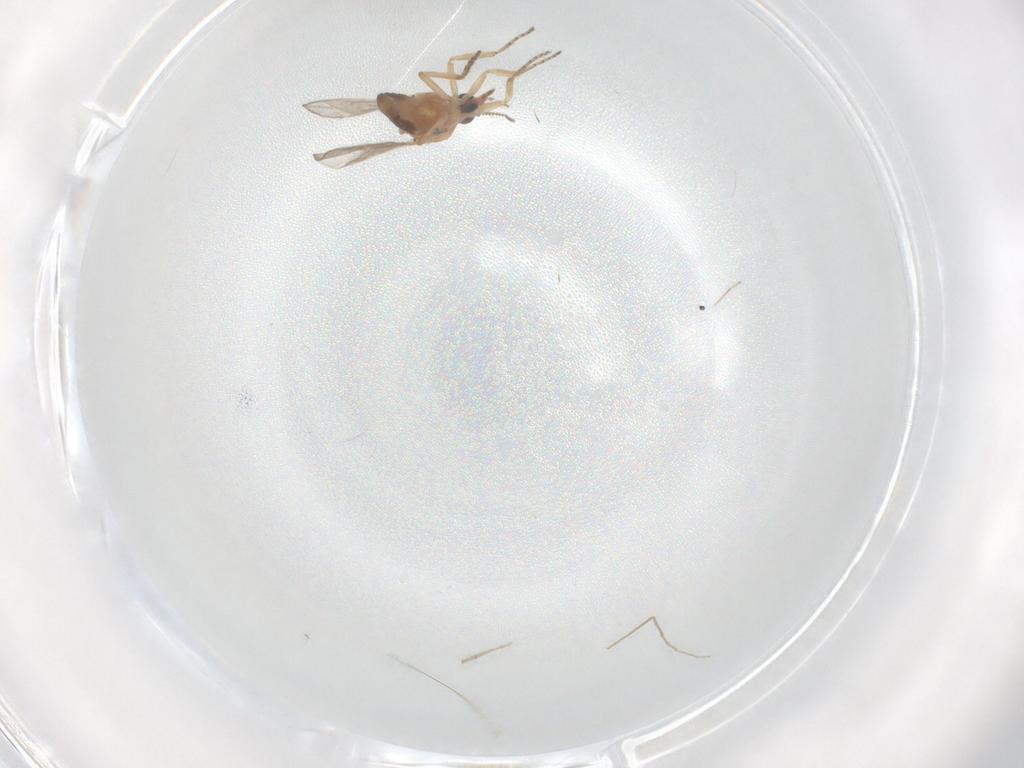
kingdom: Animalia
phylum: Arthropoda
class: Insecta
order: Diptera
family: Ceratopogonidae
